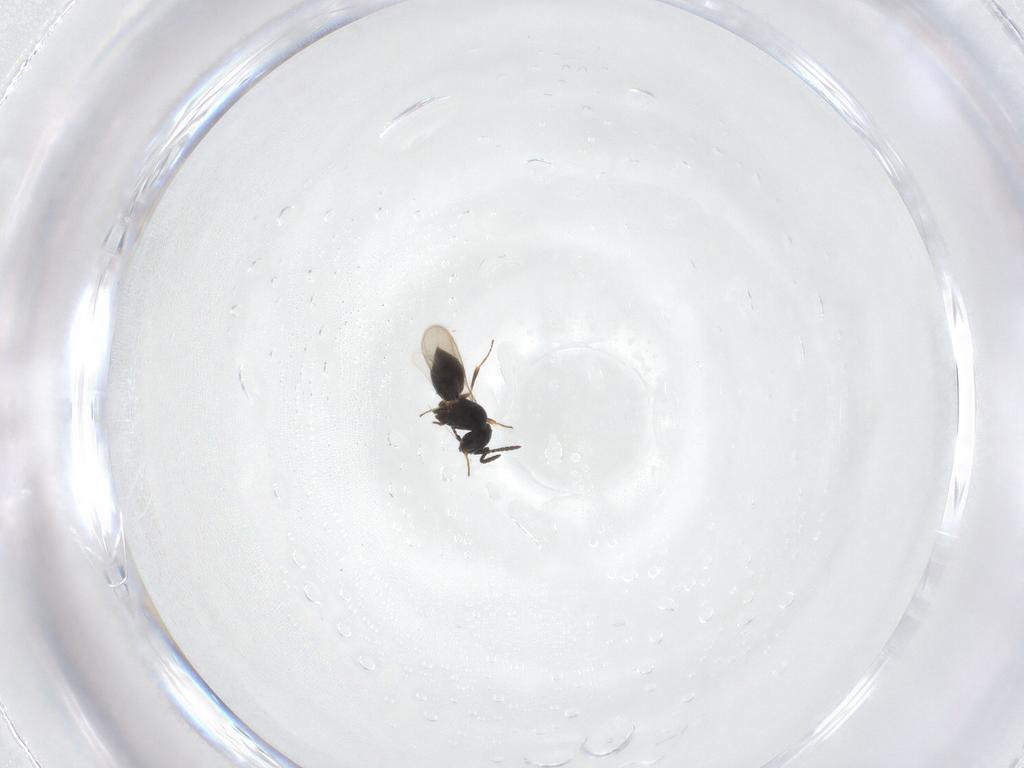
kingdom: Animalia
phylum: Arthropoda
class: Insecta
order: Hymenoptera
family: Scelionidae
